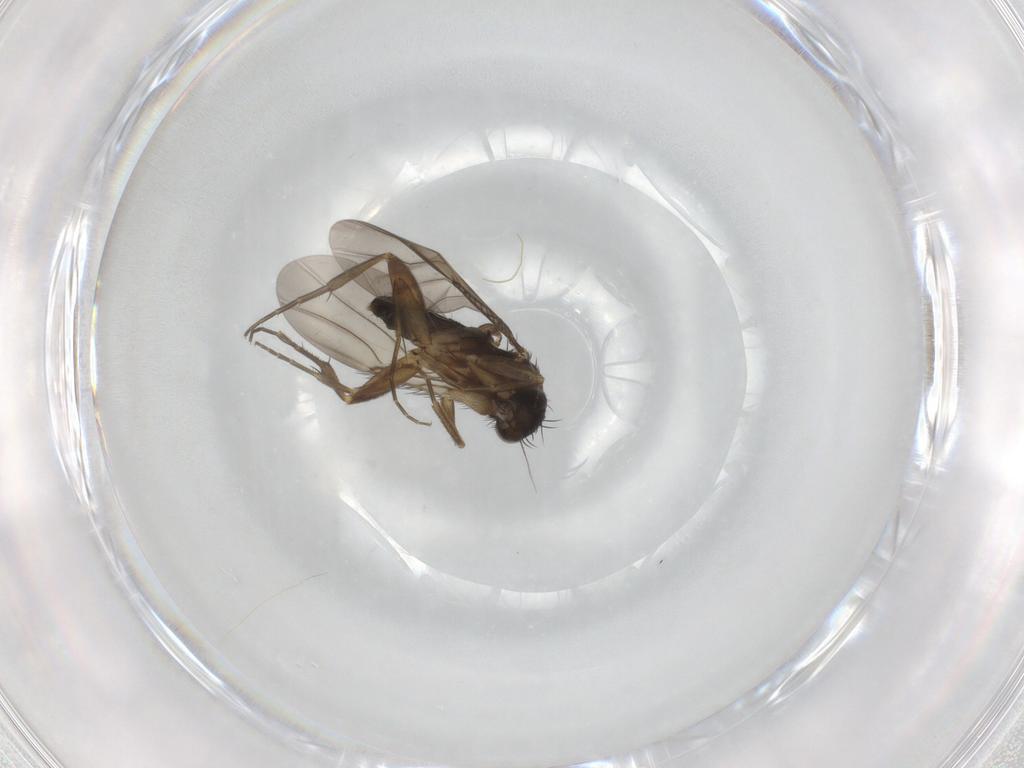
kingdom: Animalia
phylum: Arthropoda
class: Insecta
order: Diptera
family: Phoridae
